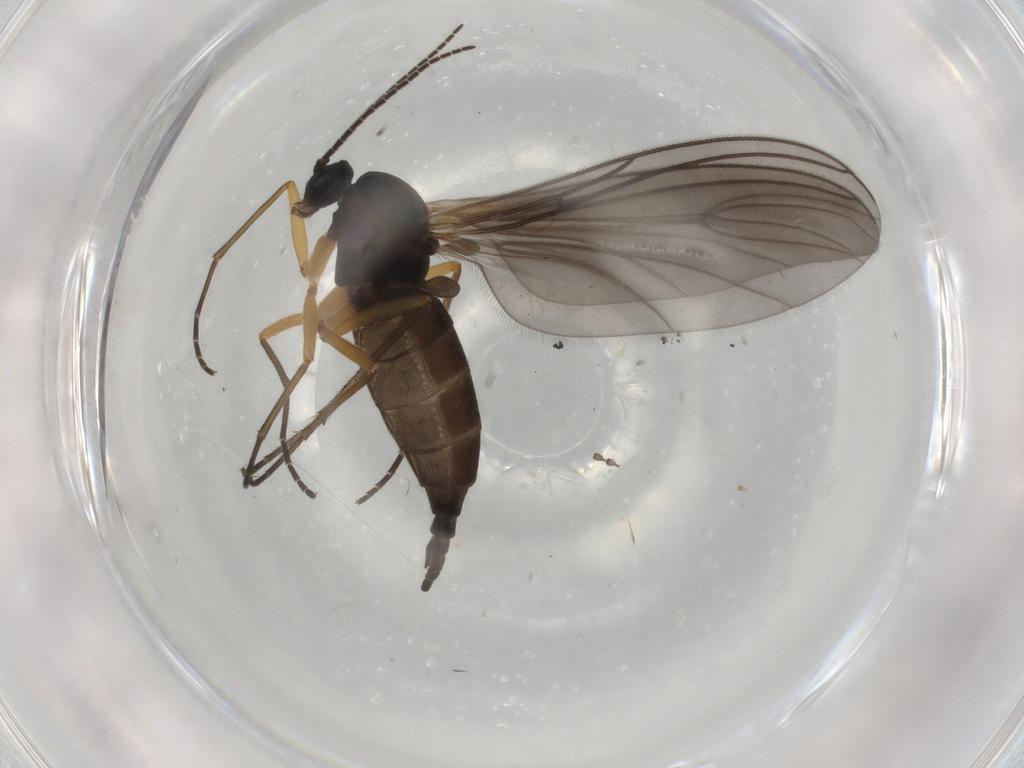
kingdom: Animalia
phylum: Arthropoda
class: Insecta
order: Diptera
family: Sciaridae
